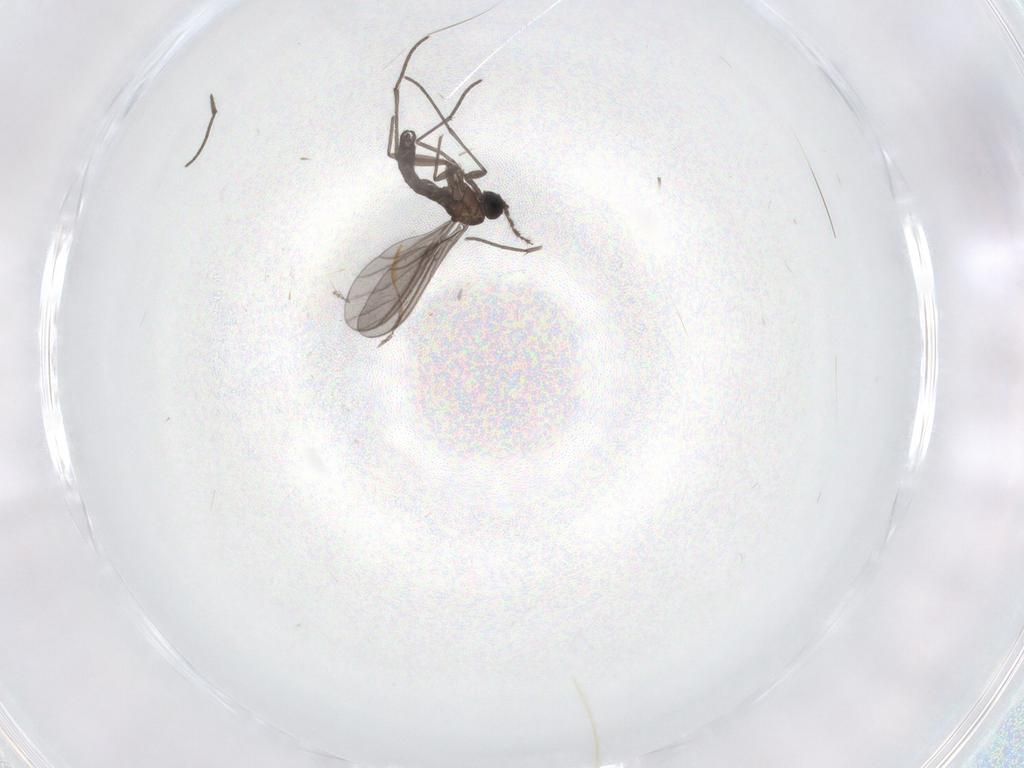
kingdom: Animalia
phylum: Arthropoda
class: Insecta
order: Diptera
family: Sciaridae
